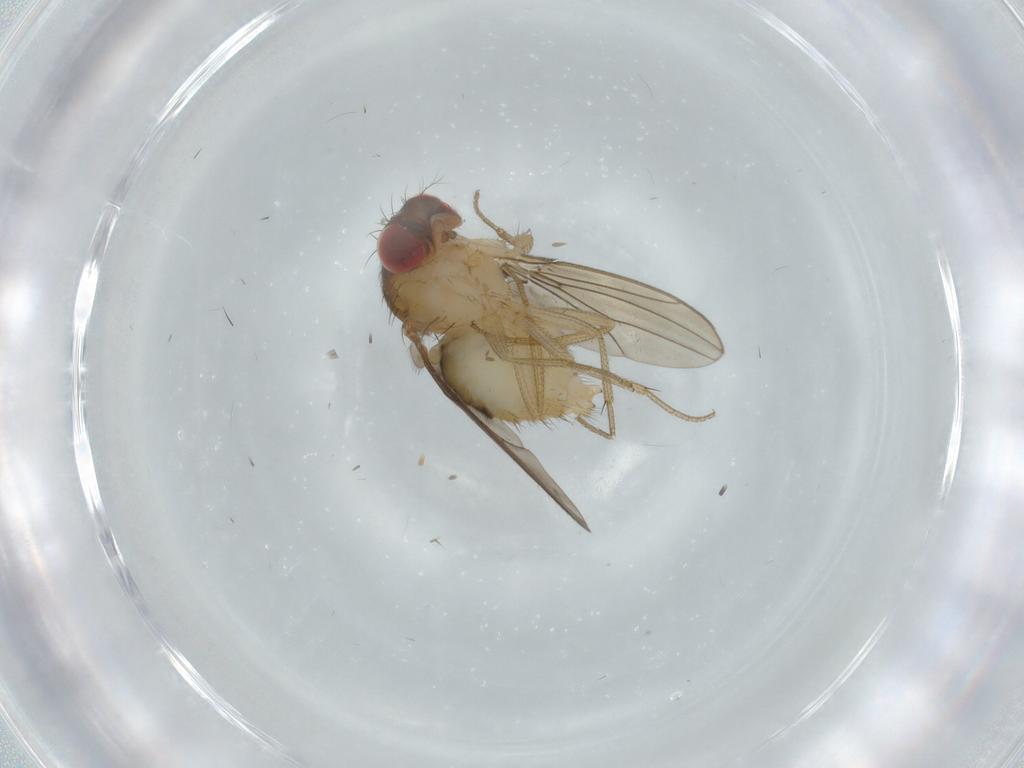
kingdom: Animalia
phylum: Arthropoda
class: Insecta
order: Diptera
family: Drosophilidae
